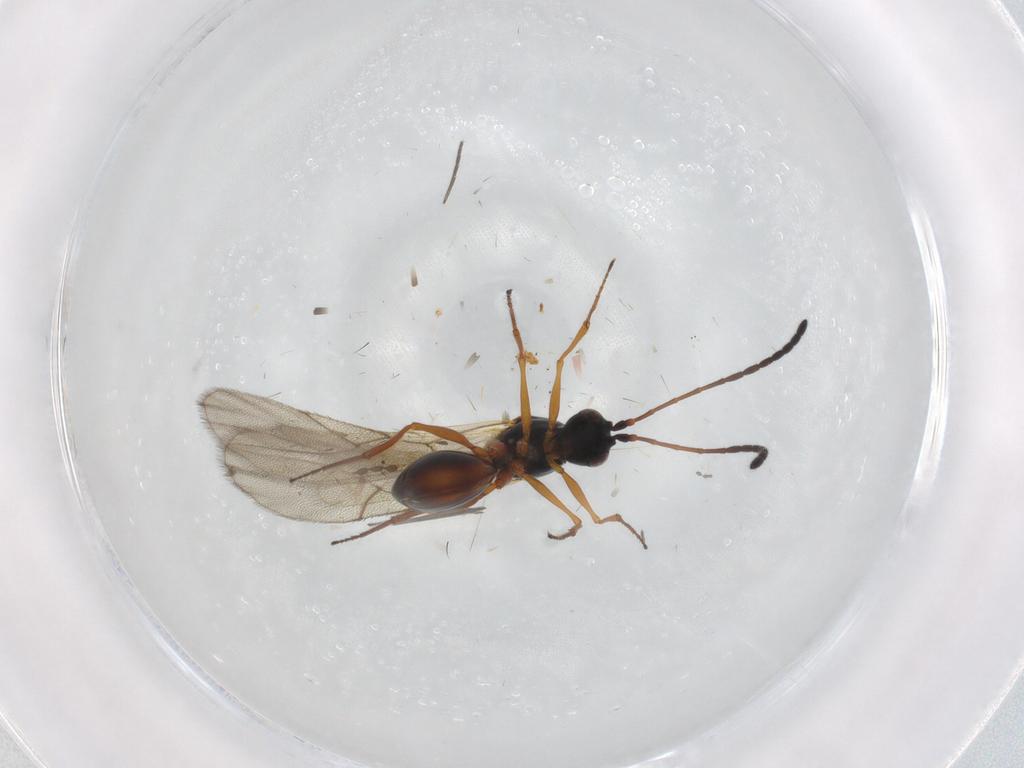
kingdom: Animalia
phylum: Arthropoda
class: Insecta
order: Hymenoptera
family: Figitidae
